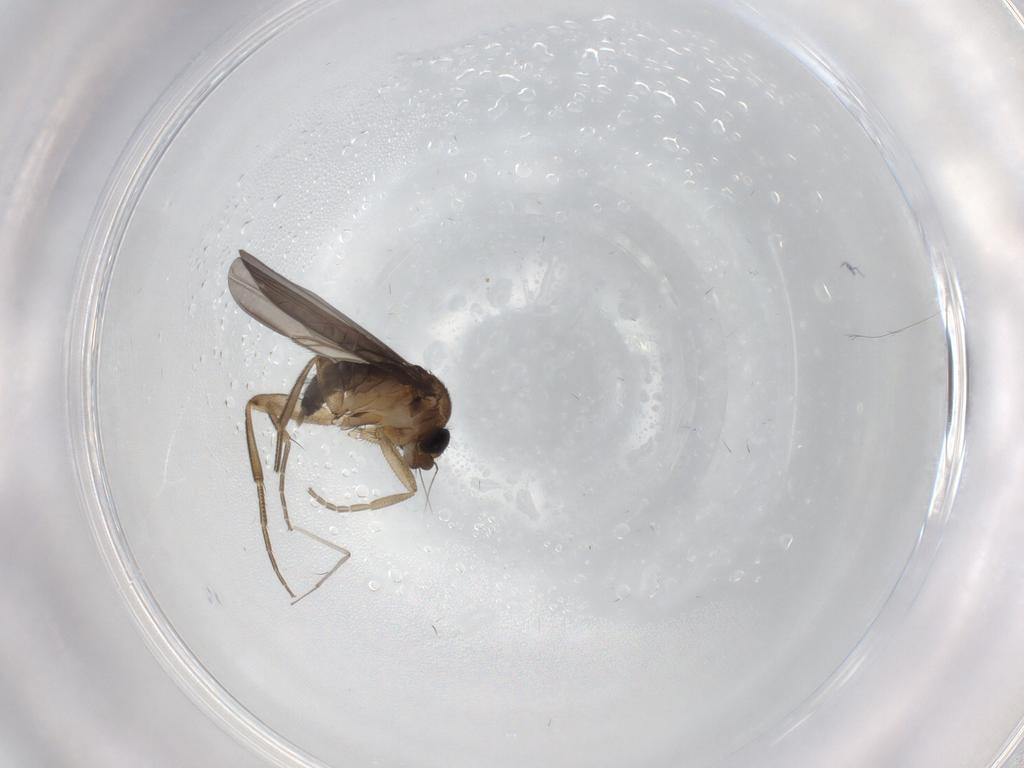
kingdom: Animalia
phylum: Arthropoda
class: Insecta
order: Diptera
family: Phoridae
